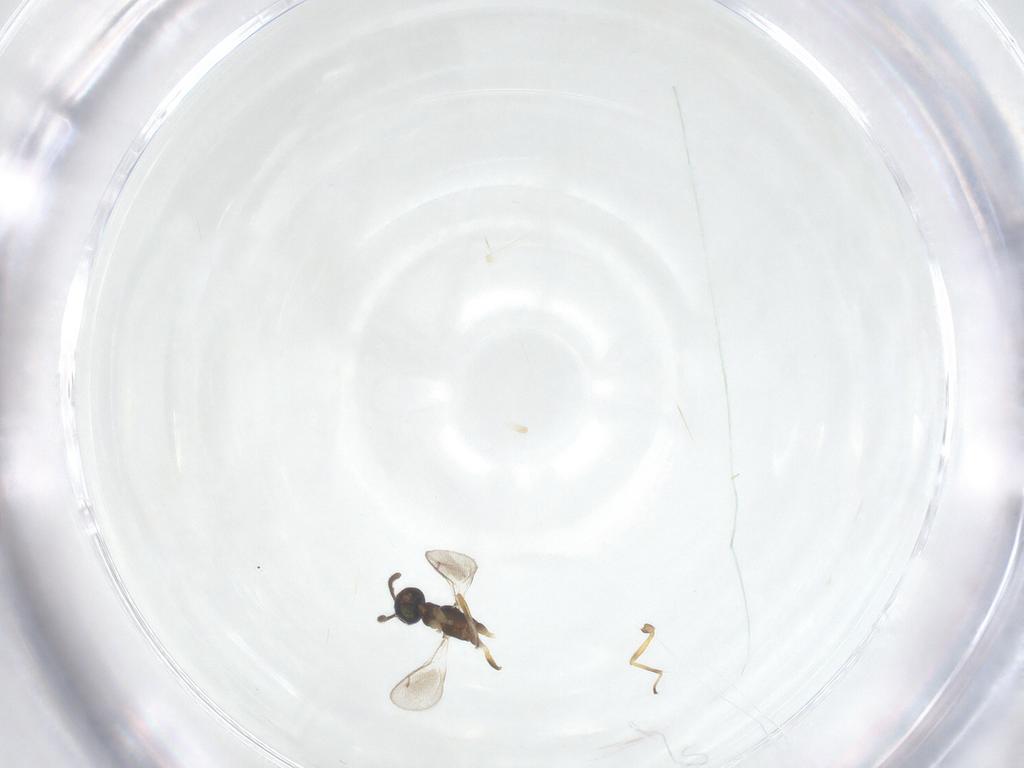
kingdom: Animalia
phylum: Arthropoda
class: Insecta
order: Hymenoptera
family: Eupelmidae
